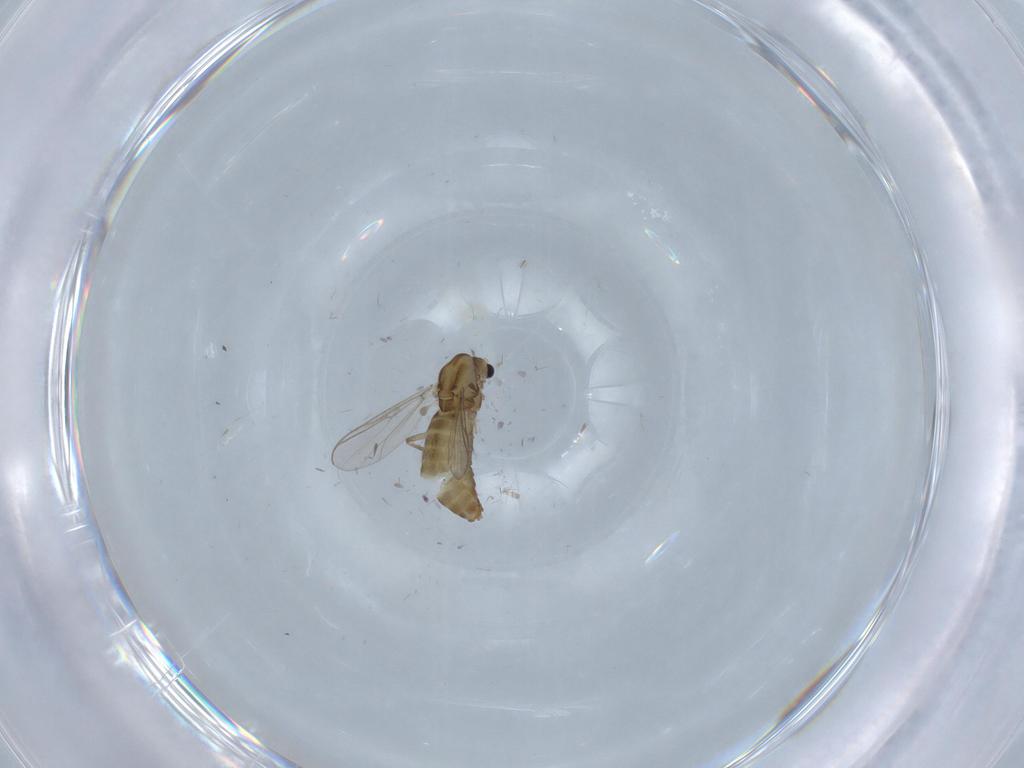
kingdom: Animalia
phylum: Arthropoda
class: Insecta
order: Diptera
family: Chironomidae
